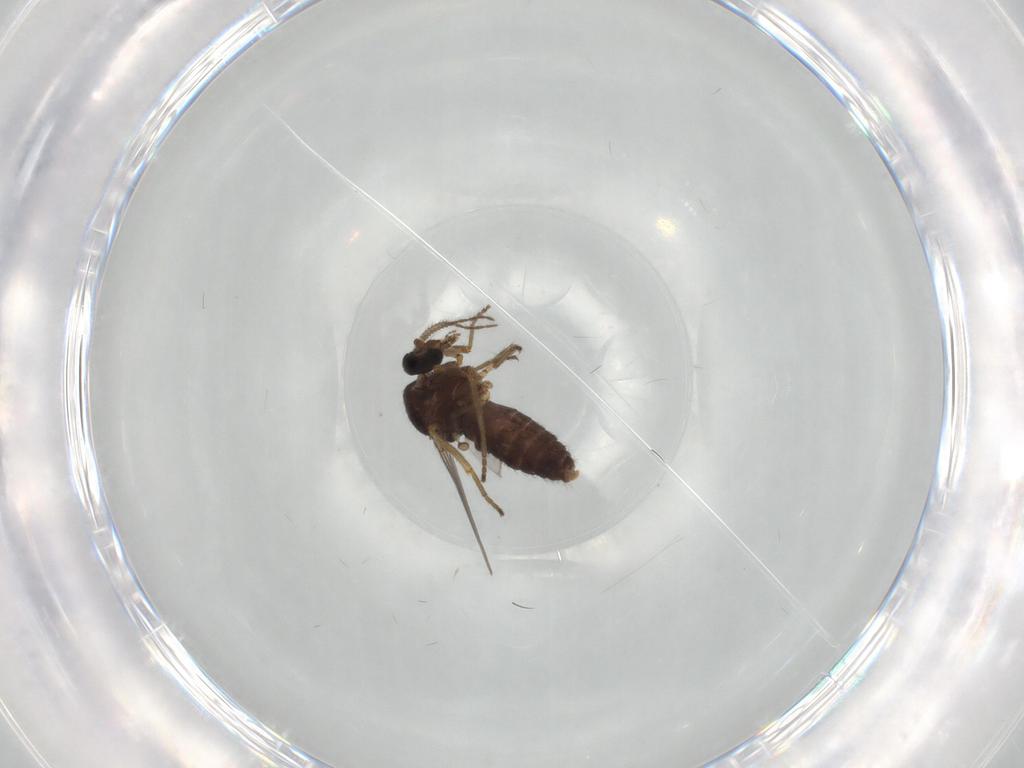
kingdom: Animalia
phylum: Arthropoda
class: Insecta
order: Diptera
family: Ceratopogonidae
